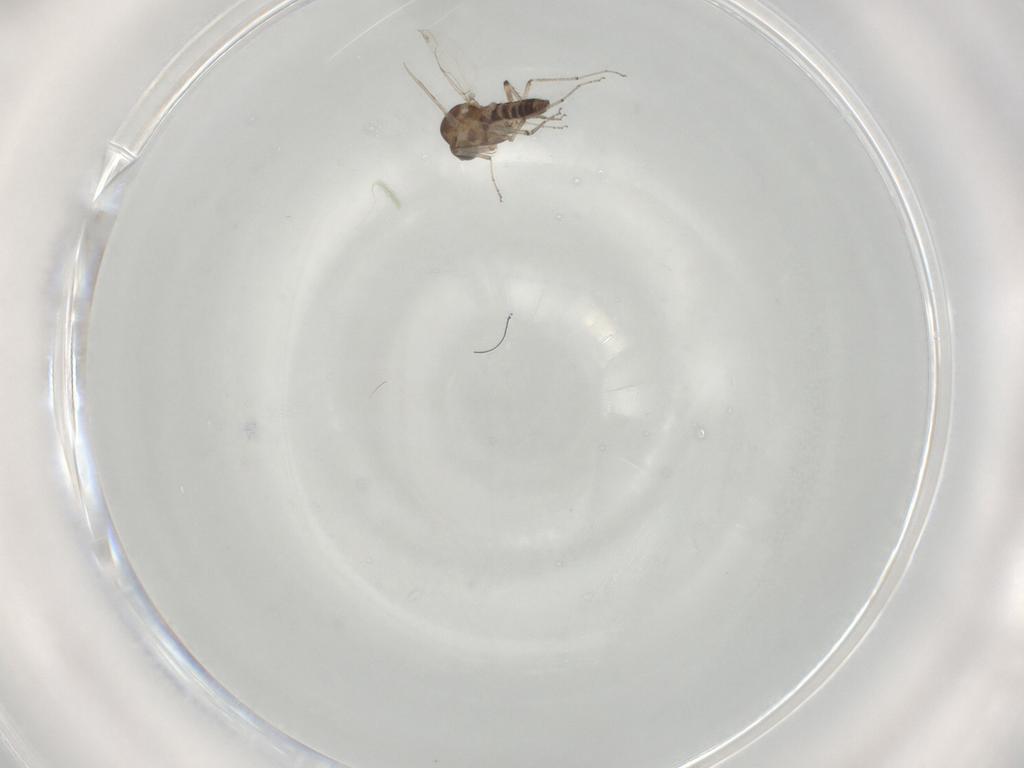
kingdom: Animalia
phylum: Arthropoda
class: Insecta
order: Diptera
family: Ceratopogonidae
